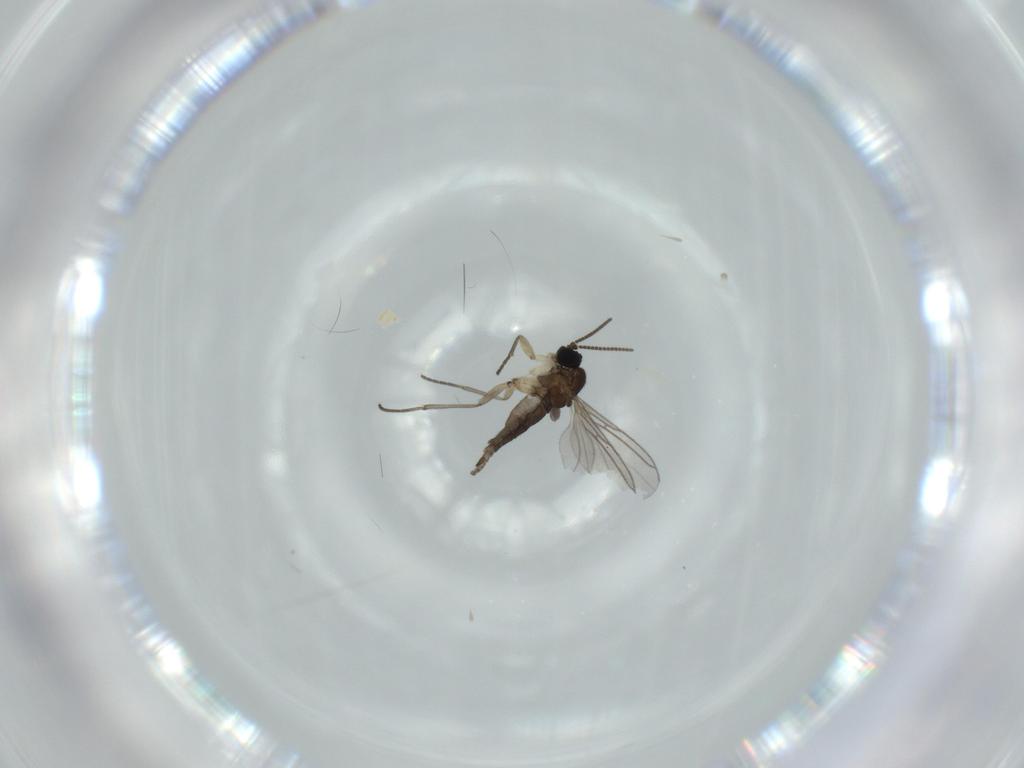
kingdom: Animalia
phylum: Arthropoda
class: Insecta
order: Diptera
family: Sciaridae
